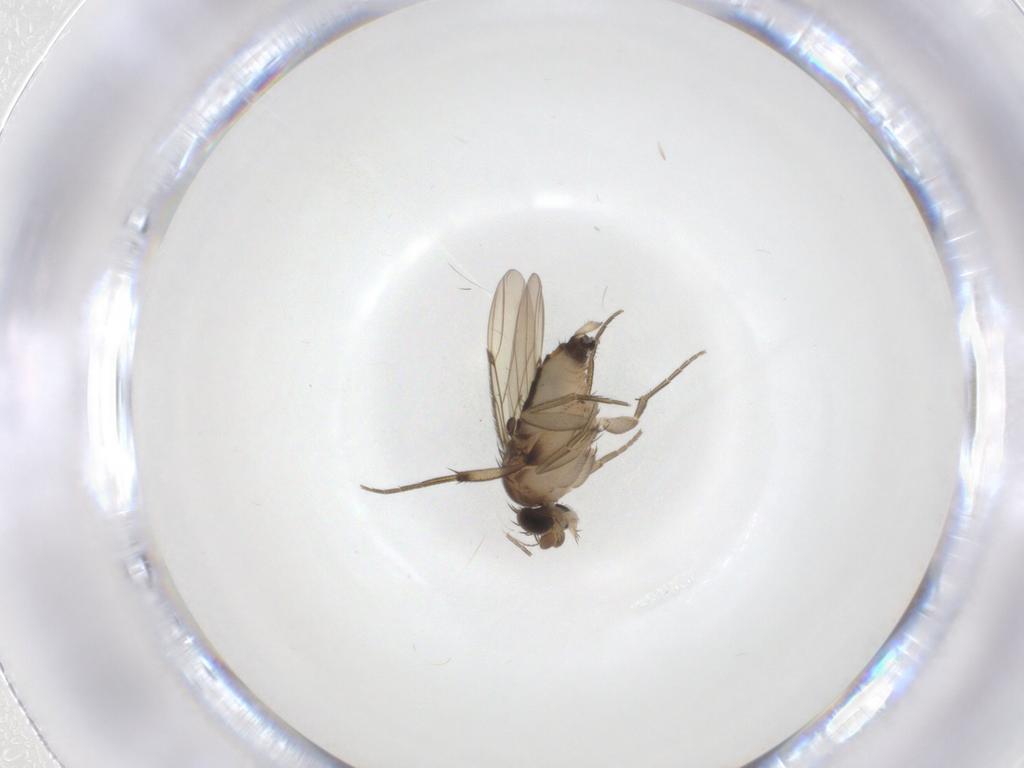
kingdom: Animalia
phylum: Arthropoda
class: Insecta
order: Diptera
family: Phoridae
